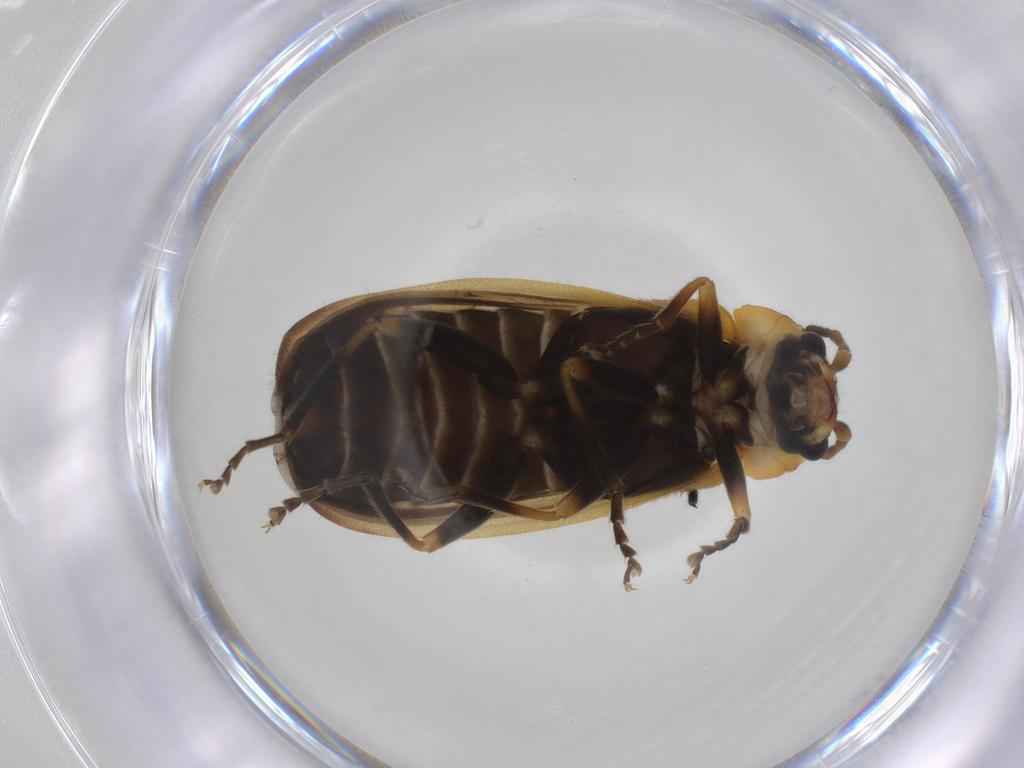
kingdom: Animalia
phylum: Arthropoda
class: Insecta
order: Coleoptera
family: Cantharidae
